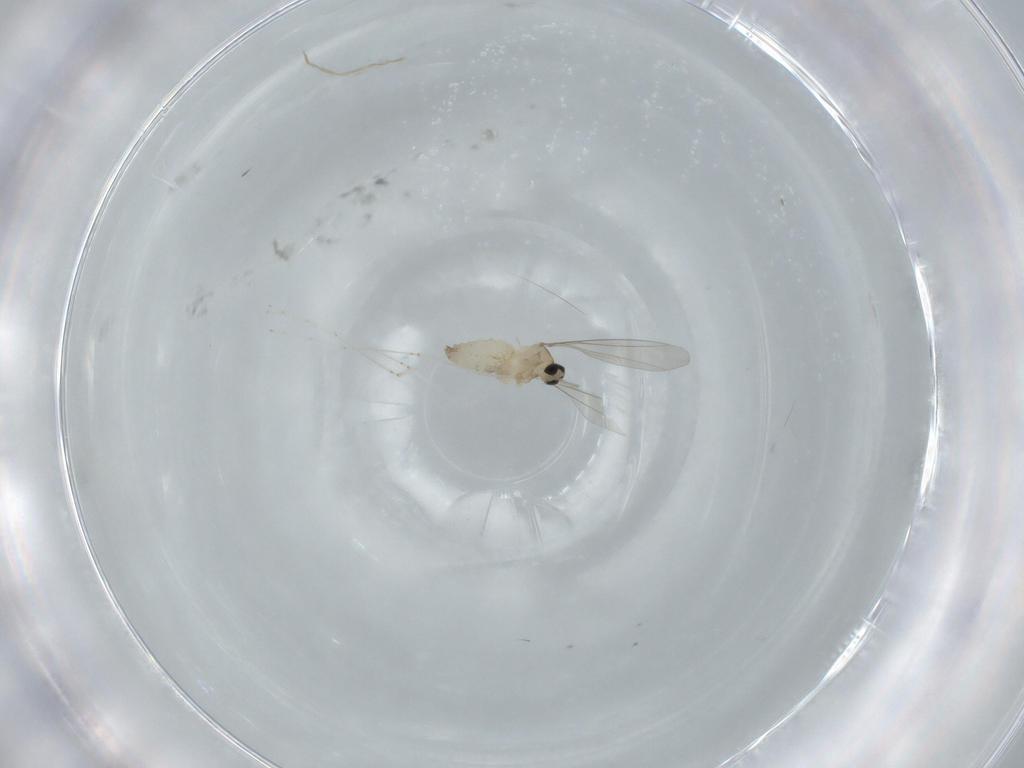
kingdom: Animalia
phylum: Arthropoda
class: Insecta
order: Diptera
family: Cecidomyiidae
